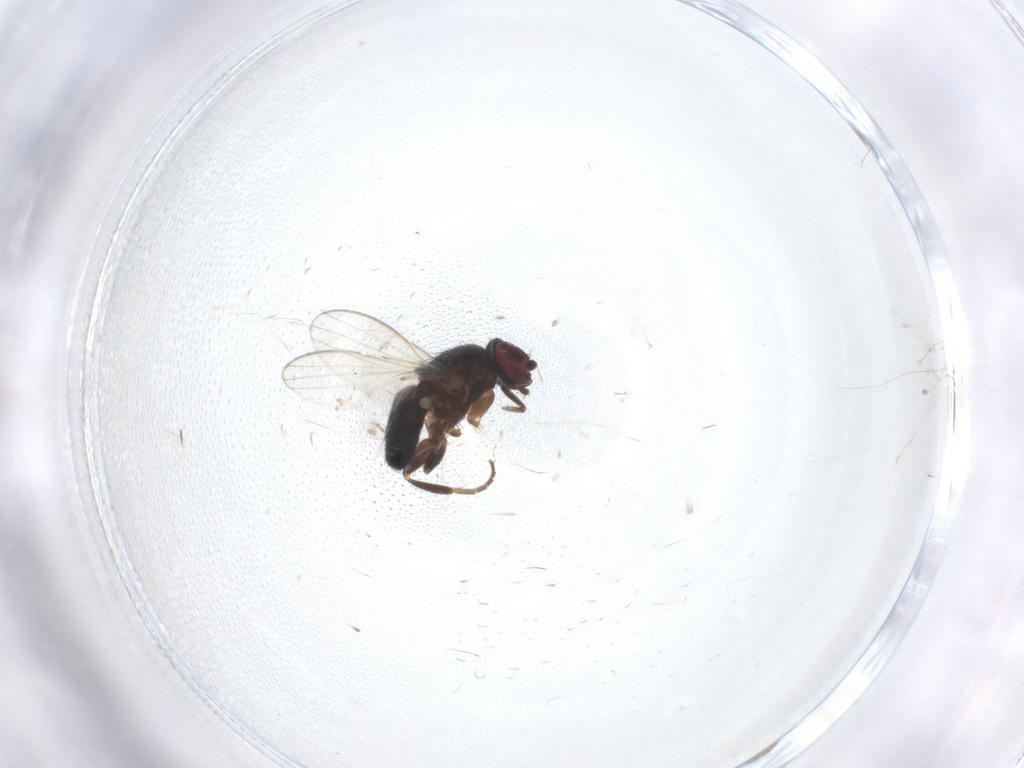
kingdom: Animalia
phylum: Arthropoda
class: Insecta
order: Diptera
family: Milichiidae
